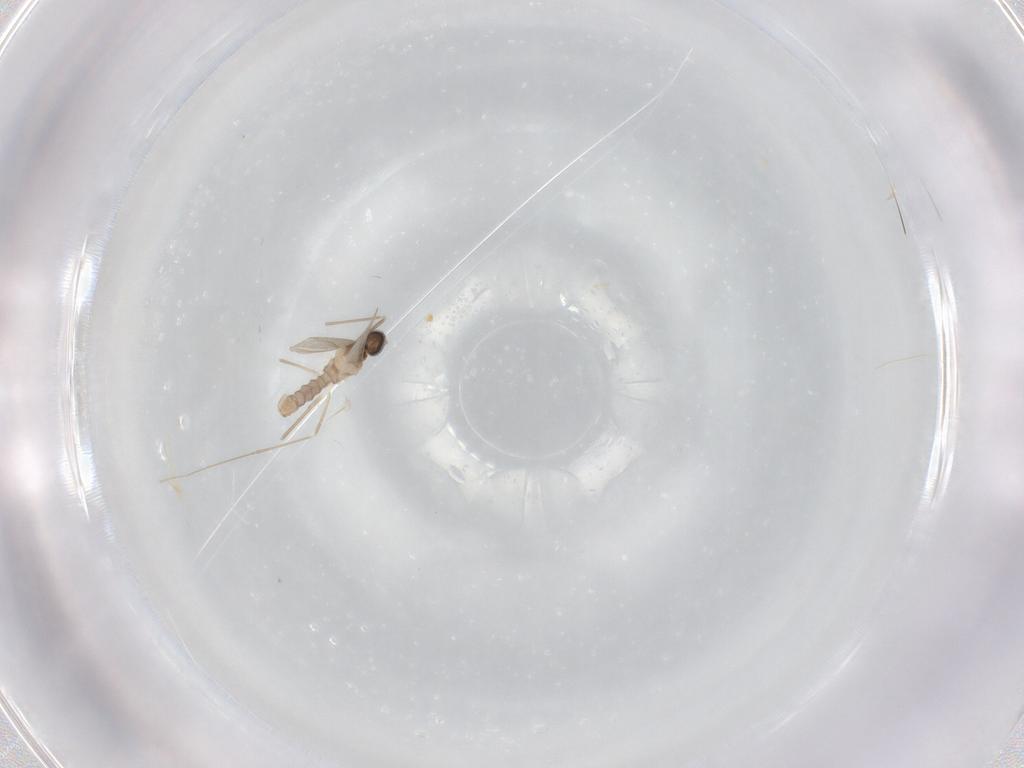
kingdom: Animalia
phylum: Arthropoda
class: Insecta
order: Diptera
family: Cecidomyiidae
